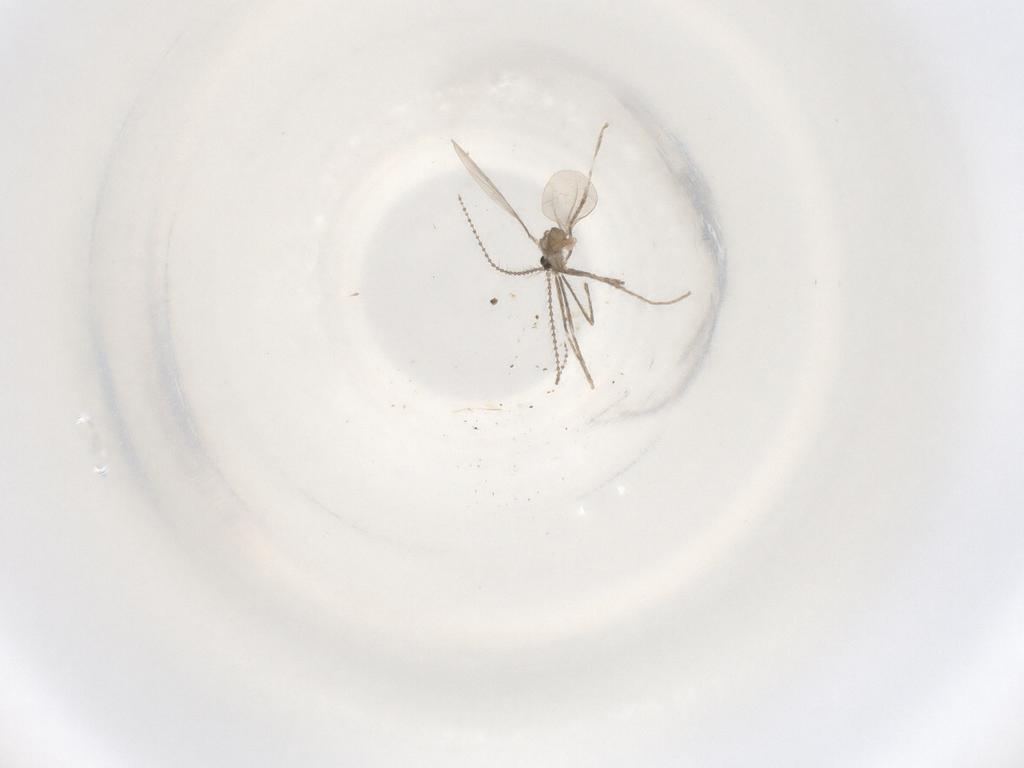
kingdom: Animalia
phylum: Arthropoda
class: Insecta
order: Diptera
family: Cecidomyiidae
